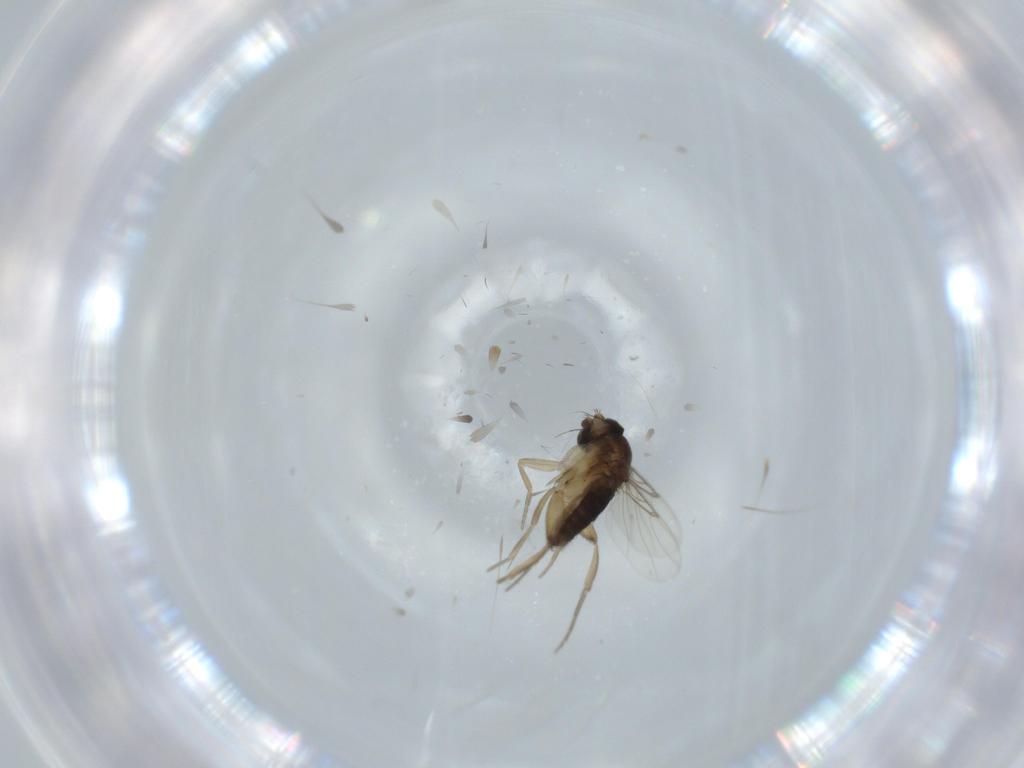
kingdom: Animalia
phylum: Arthropoda
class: Insecta
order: Diptera
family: Phoridae
